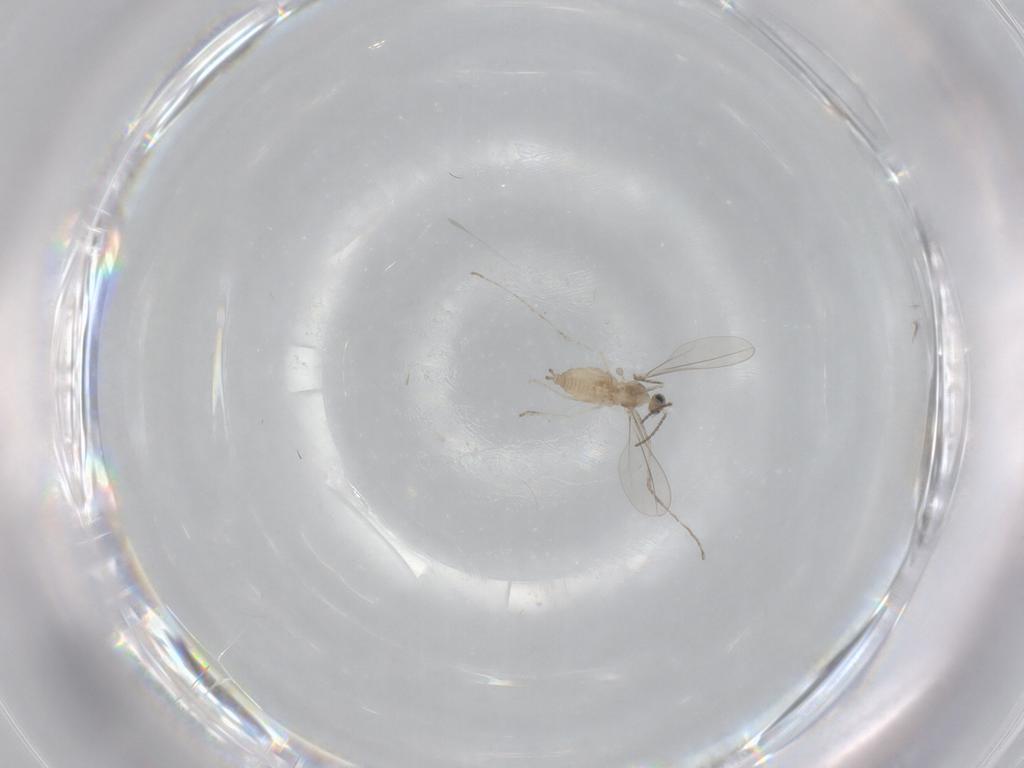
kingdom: Animalia
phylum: Arthropoda
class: Insecta
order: Diptera
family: Cecidomyiidae
